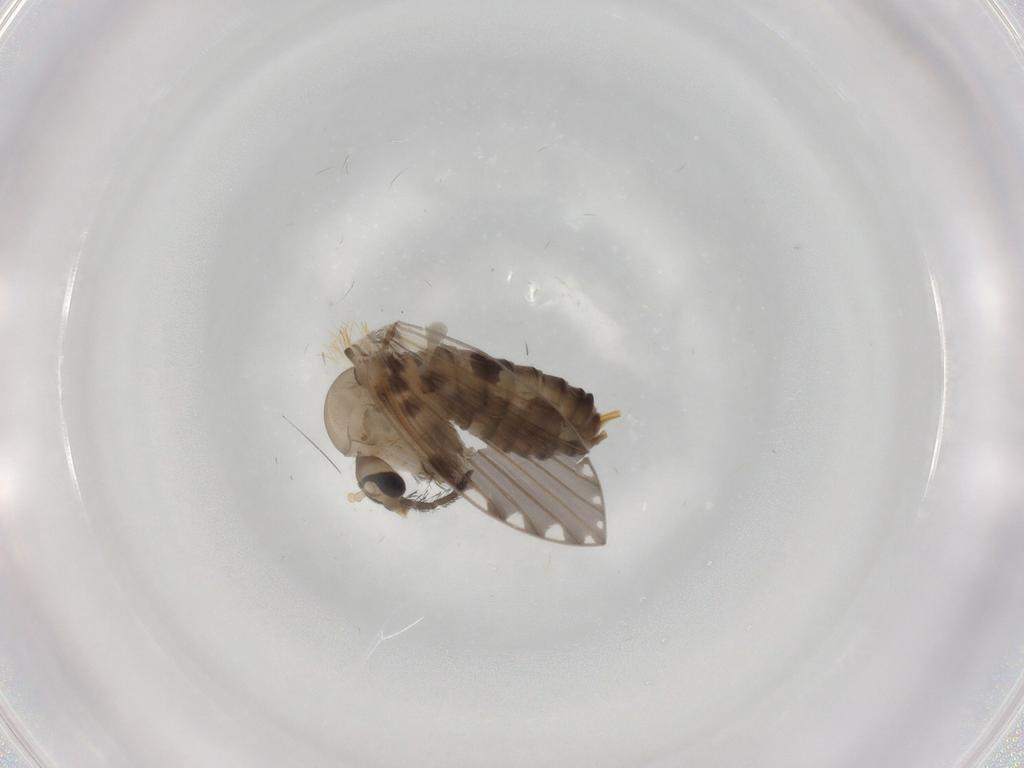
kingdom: Animalia
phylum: Arthropoda
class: Insecta
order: Diptera
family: Psychodidae
